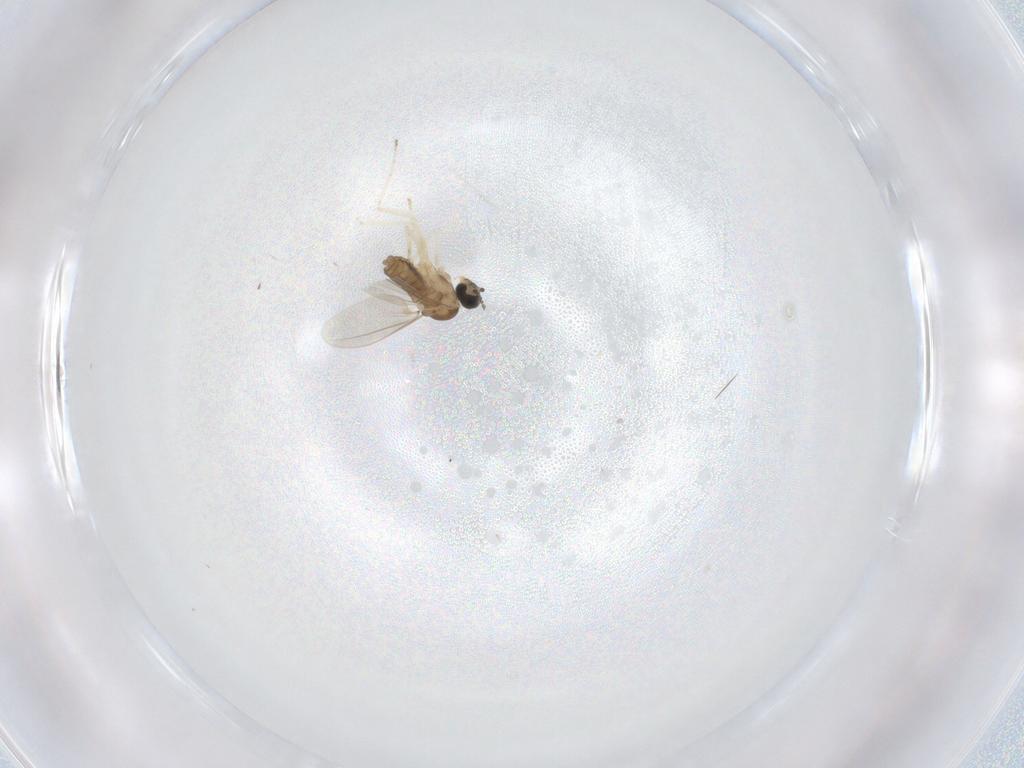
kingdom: Animalia
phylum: Arthropoda
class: Insecta
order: Diptera
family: Cecidomyiidae
